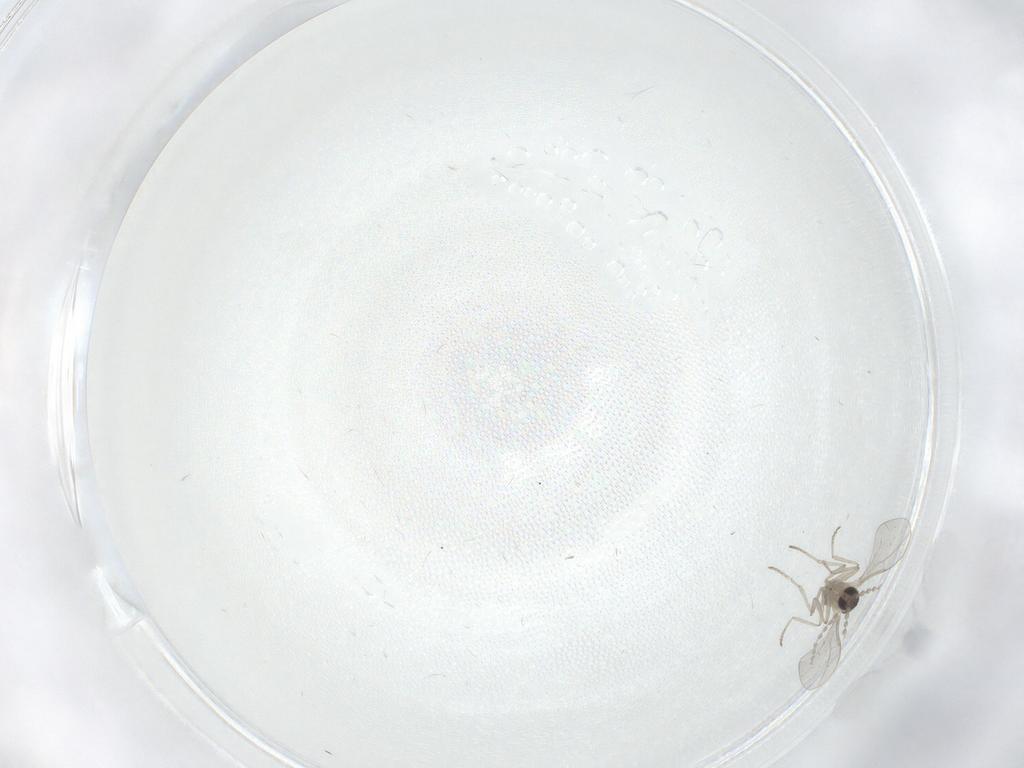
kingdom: Animalia
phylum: Arthropoda
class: Insecta
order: Diptera
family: Cecidomyiidae
